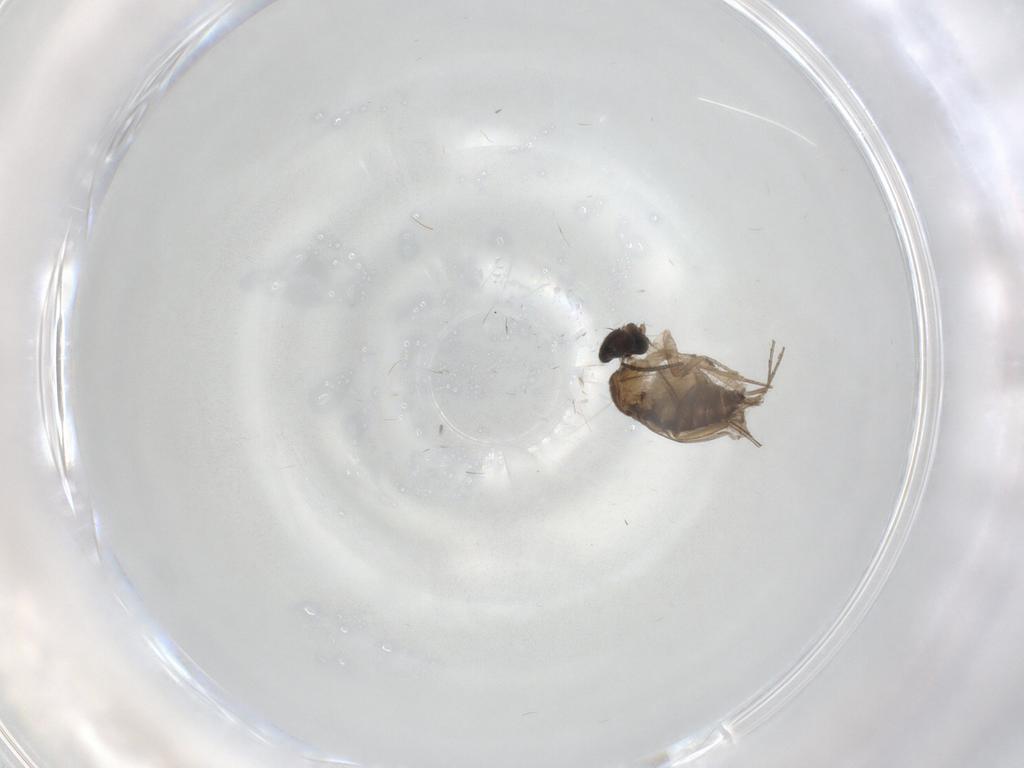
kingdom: Animalia
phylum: Arthropoda
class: Insecta
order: Diptera
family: Phoridae
